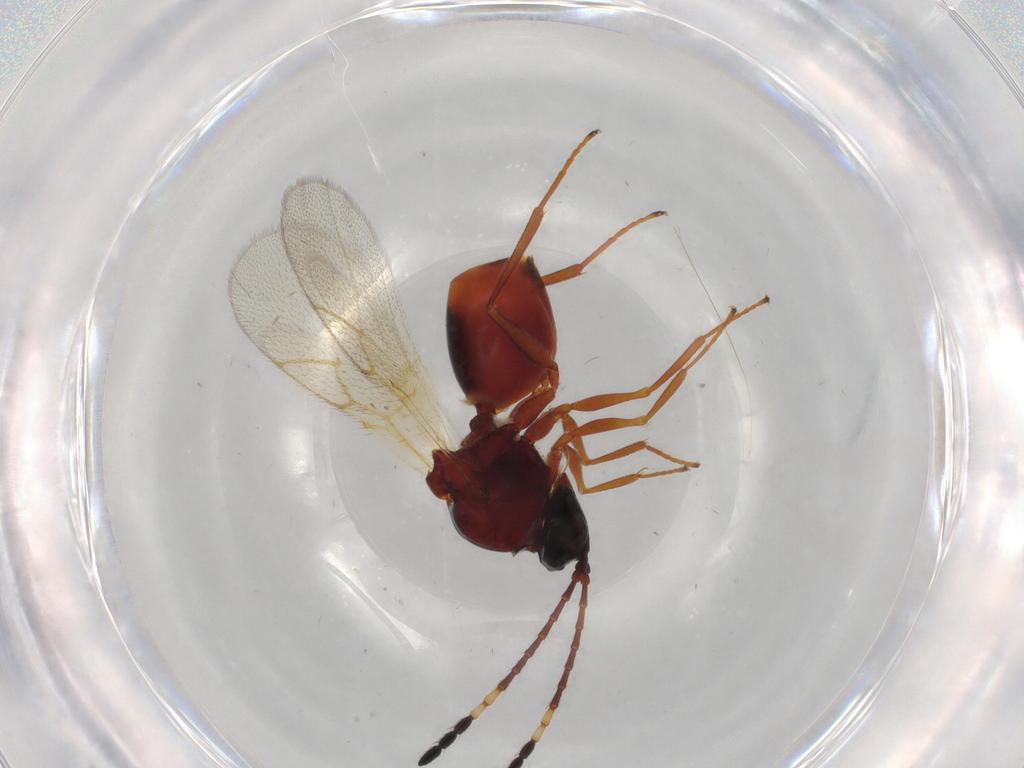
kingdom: Animalia
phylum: Arthropoda
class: Insecta
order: Hymenoptera
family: Figitidae
